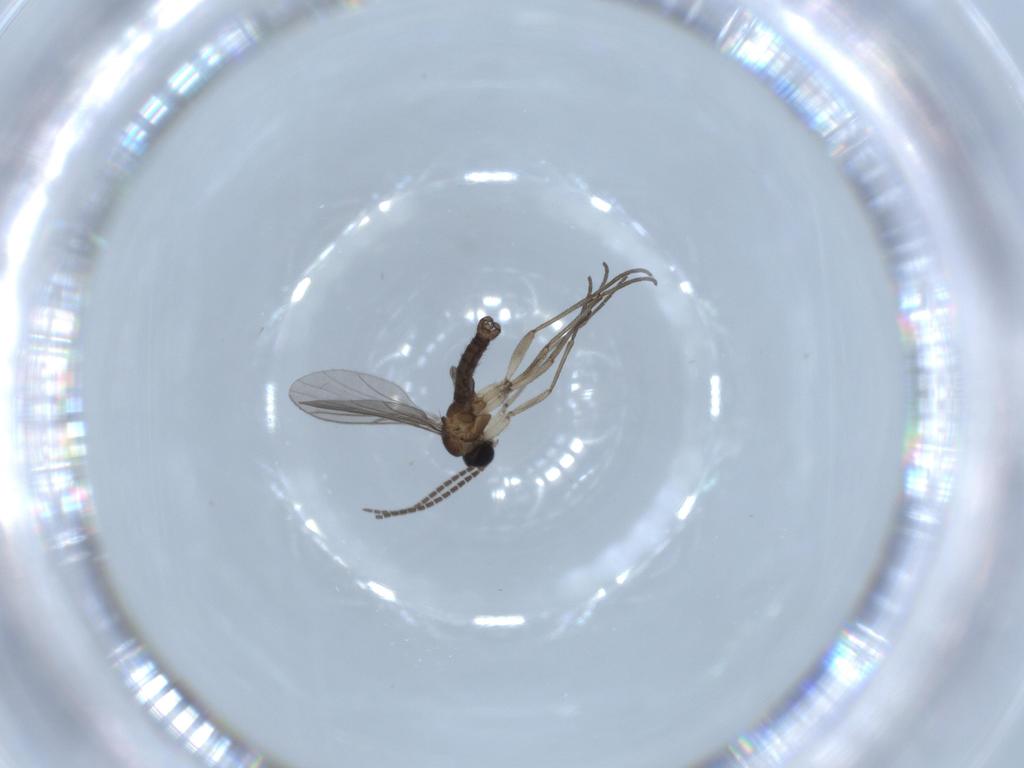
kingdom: Animalia
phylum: Arthropoda
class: Insecta
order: Diptera
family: Sciaridae
